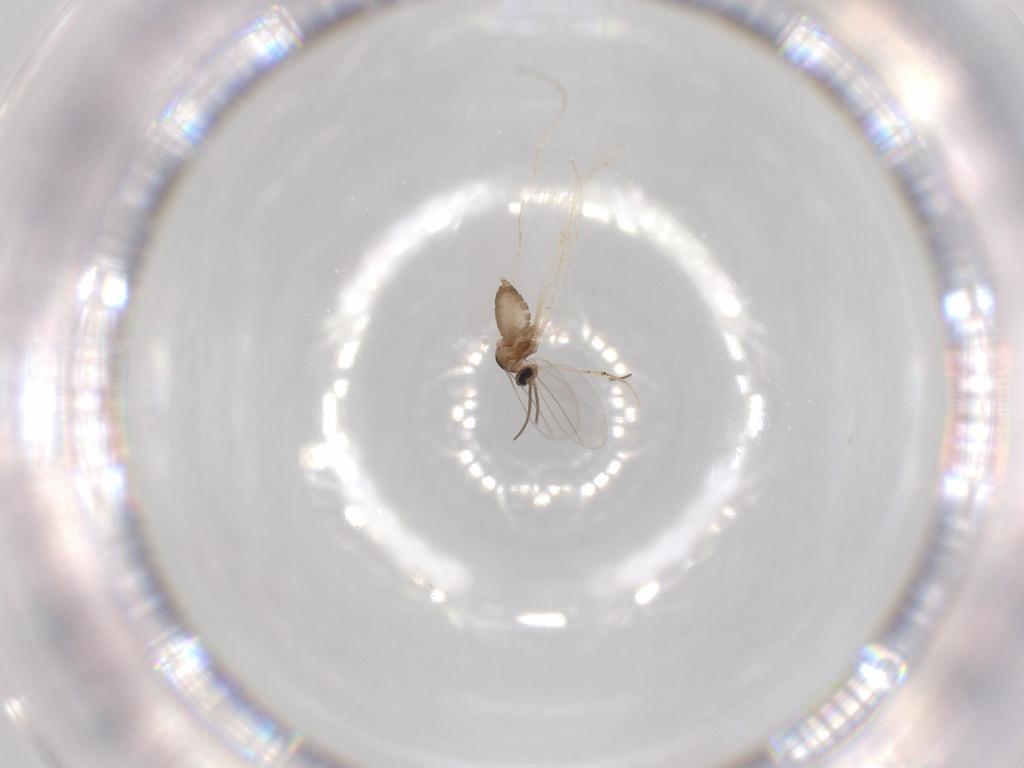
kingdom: Animalia
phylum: Arthropoda
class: Insecta
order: Diptera
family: Cecidomyiidae
